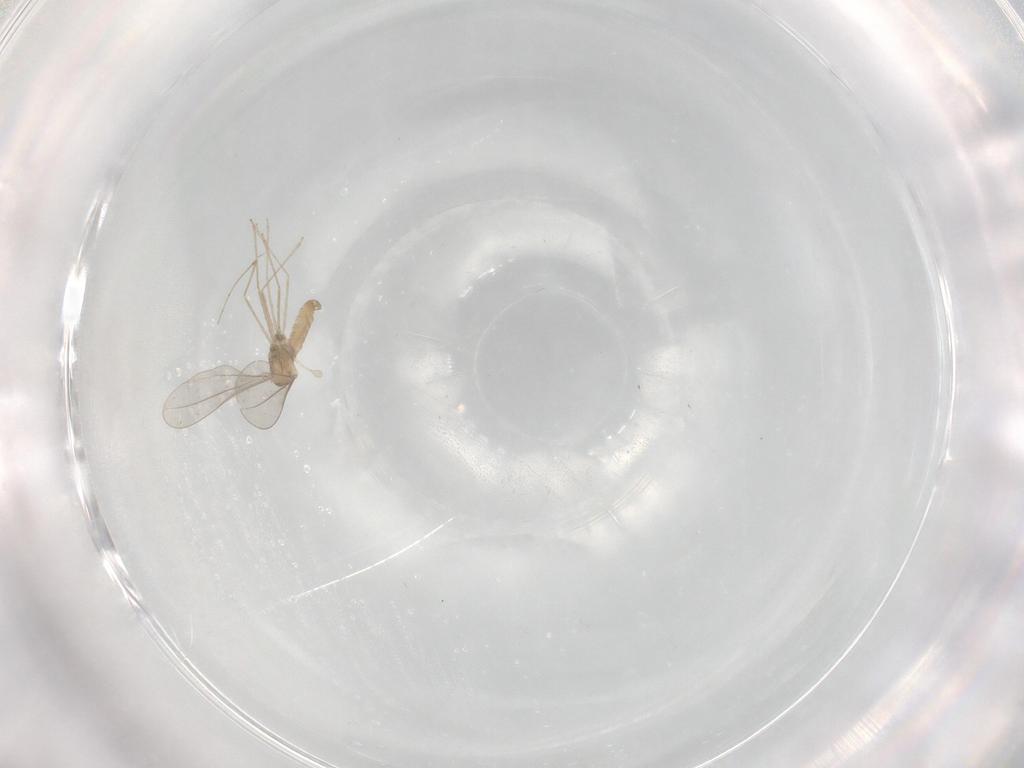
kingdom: Animalia
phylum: Arthropoda
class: Insecta
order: Diptera
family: Cecidomyiidae
